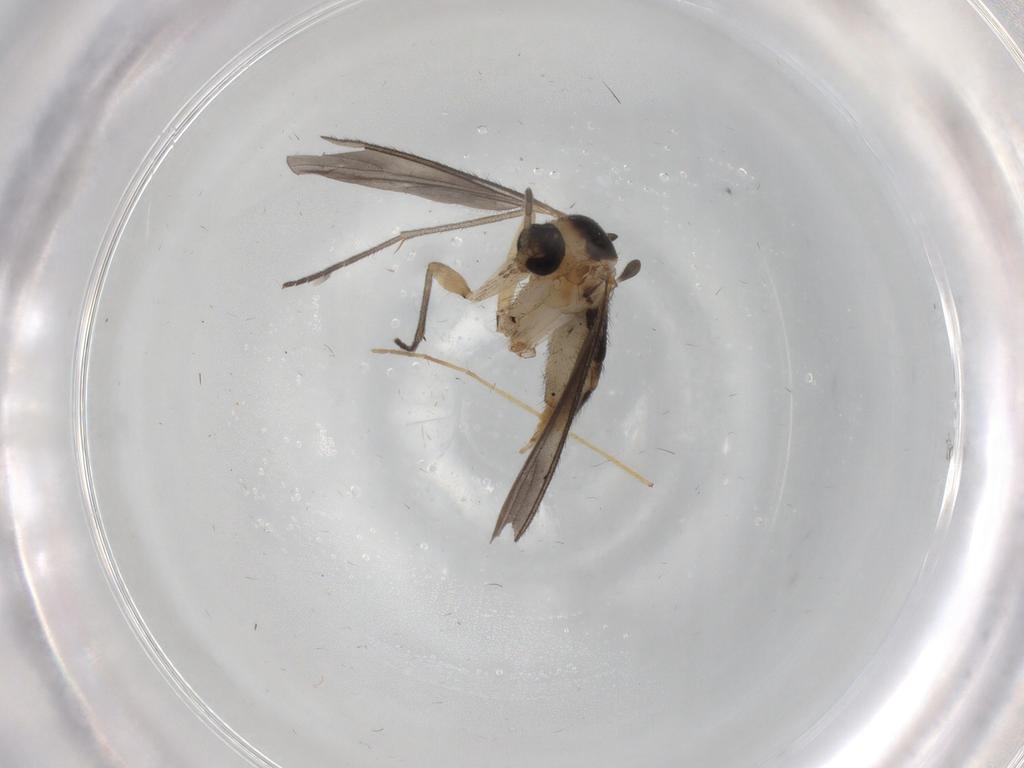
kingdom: Animalia
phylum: Arthropoda
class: Insecta
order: Diptera
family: Sciaridae
